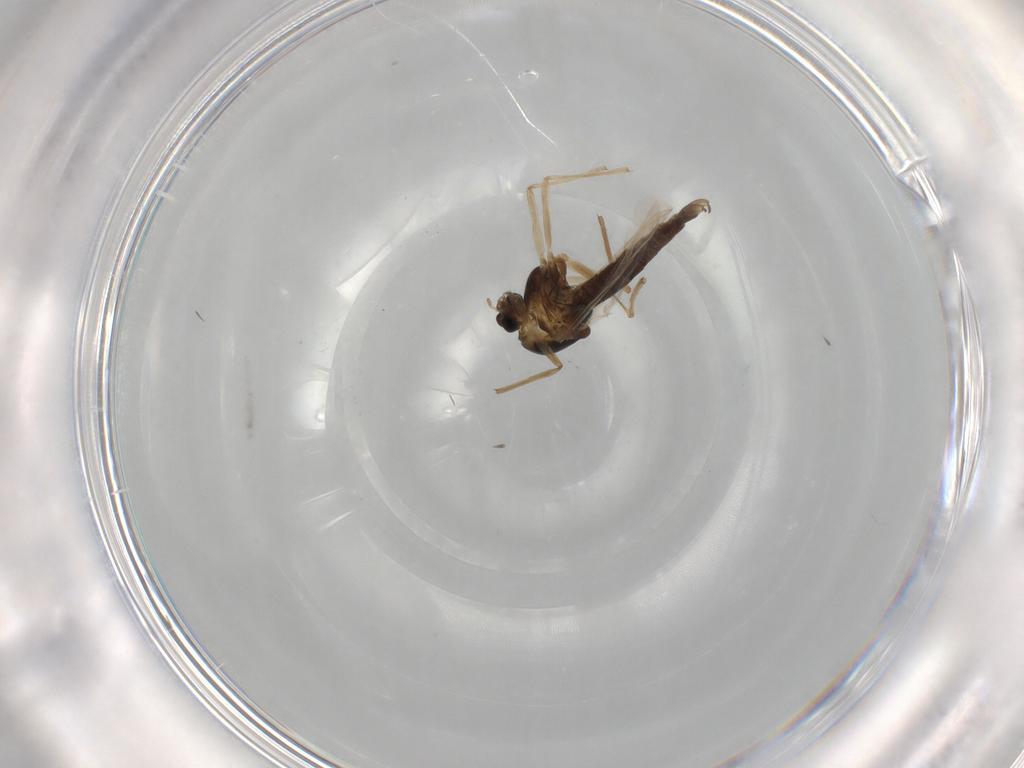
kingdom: Animalia
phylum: Arthropoda
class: Insecta
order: Diptera
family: Chironomidae
